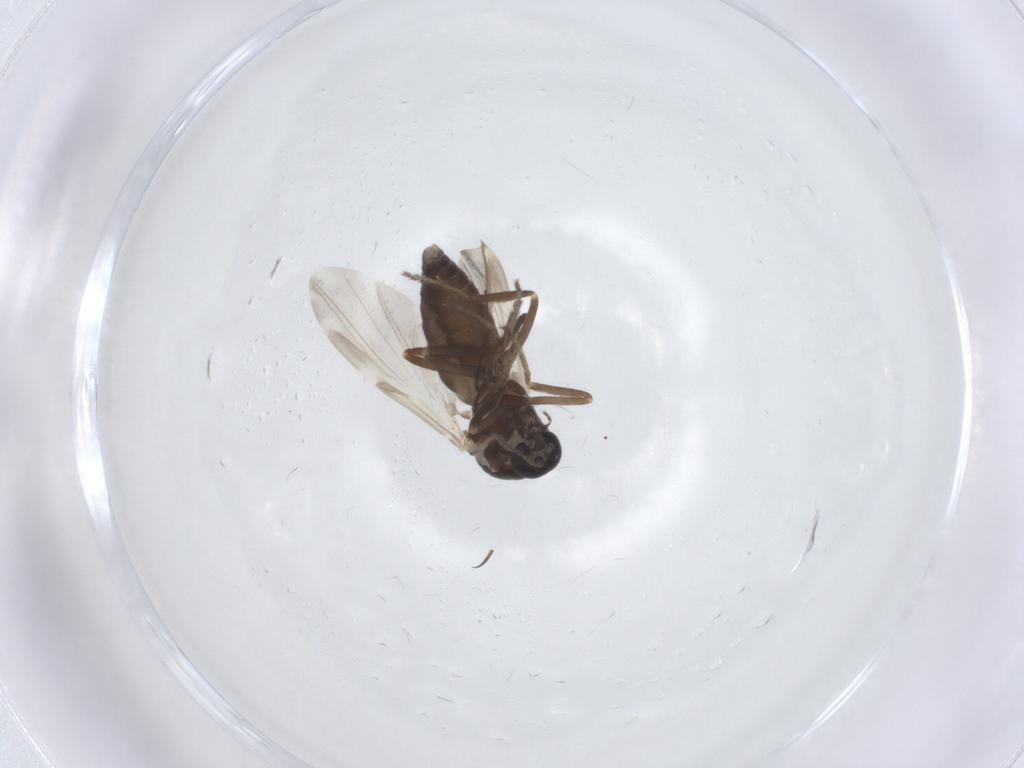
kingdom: Animalia
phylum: Arthropoda
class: Insecta
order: Diptera
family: Ceratopogonidae
